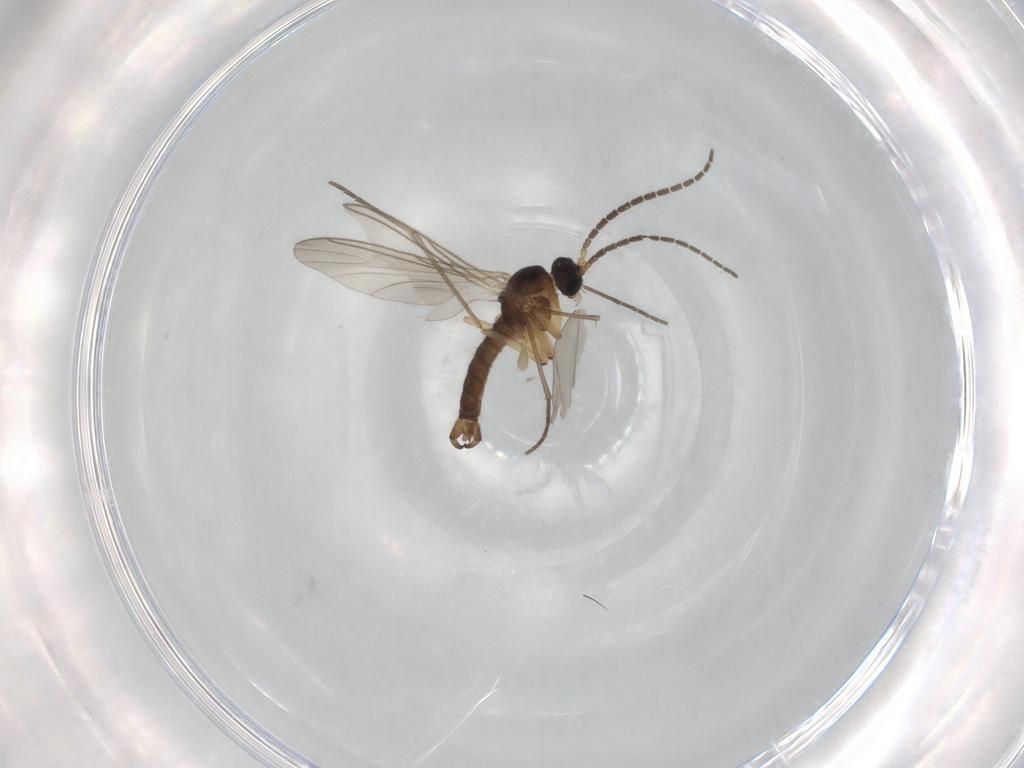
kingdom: Animalia
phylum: Arthropoda
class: Insecta
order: Diptera
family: Sciaridae
